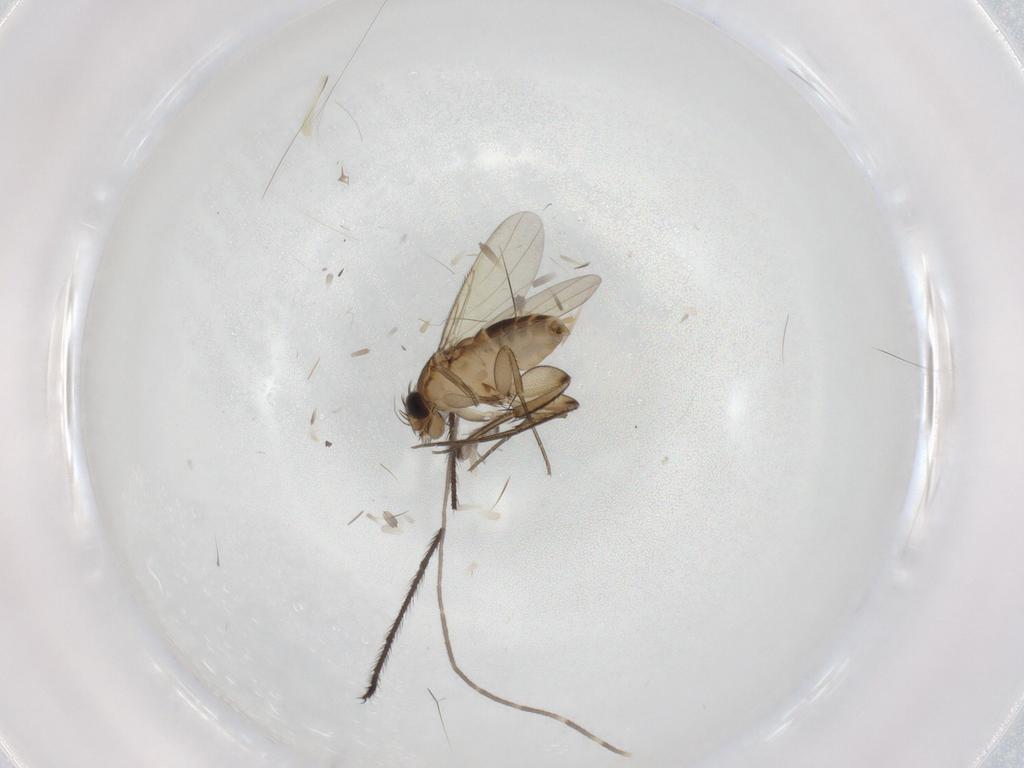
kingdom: Animalia
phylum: Arthropoda
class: Insecta
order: Diptera
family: Phoridae
